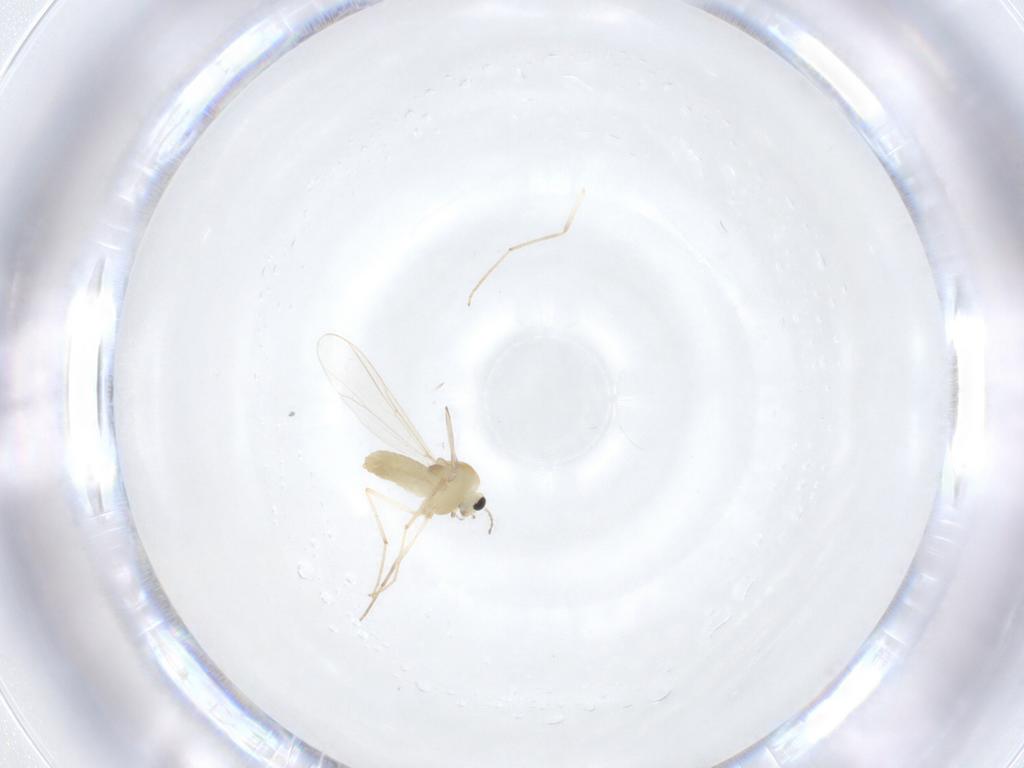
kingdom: Animalia
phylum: Arthropoda
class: Insecta
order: Diptera
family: Chironomidae
